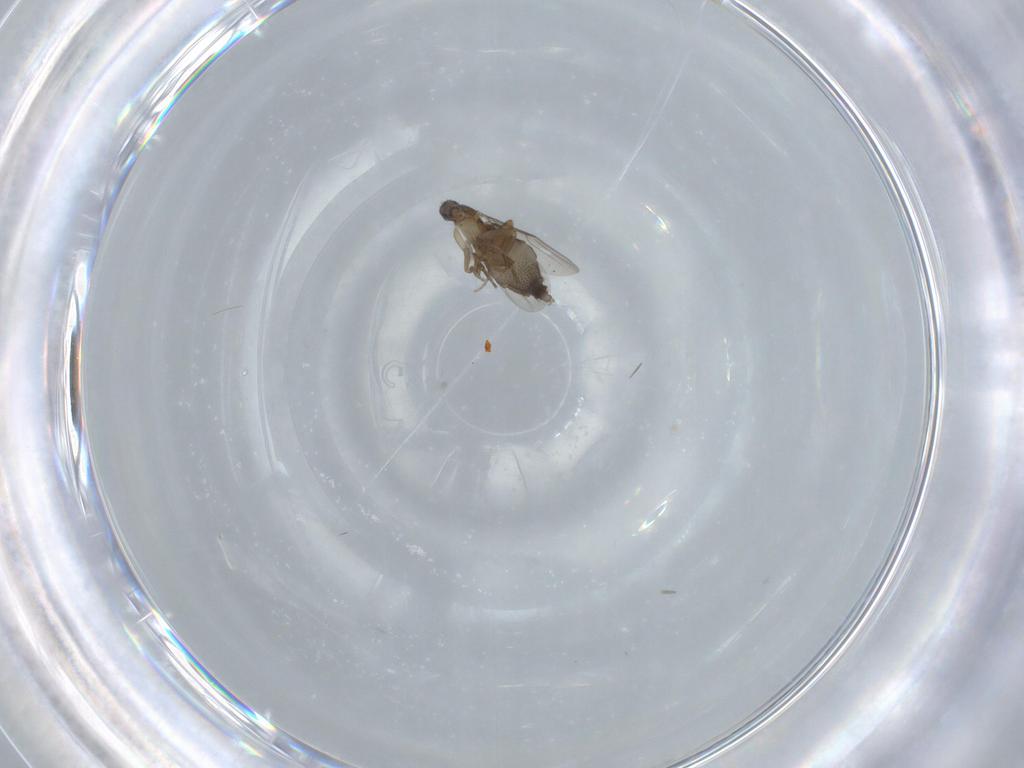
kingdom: Animalia
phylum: Arthropoda
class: Insecta
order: Diptera
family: Phoridae
